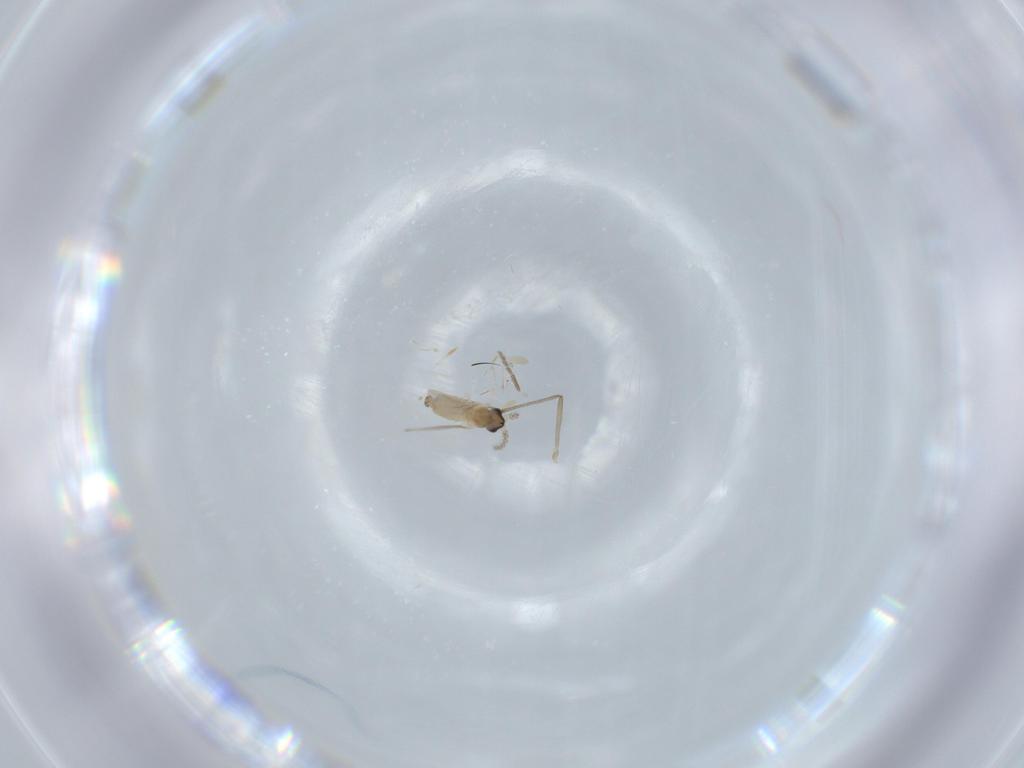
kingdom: Animalia
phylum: Arthropoda
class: Insecta
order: Diptera
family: Cecidomyiidae
